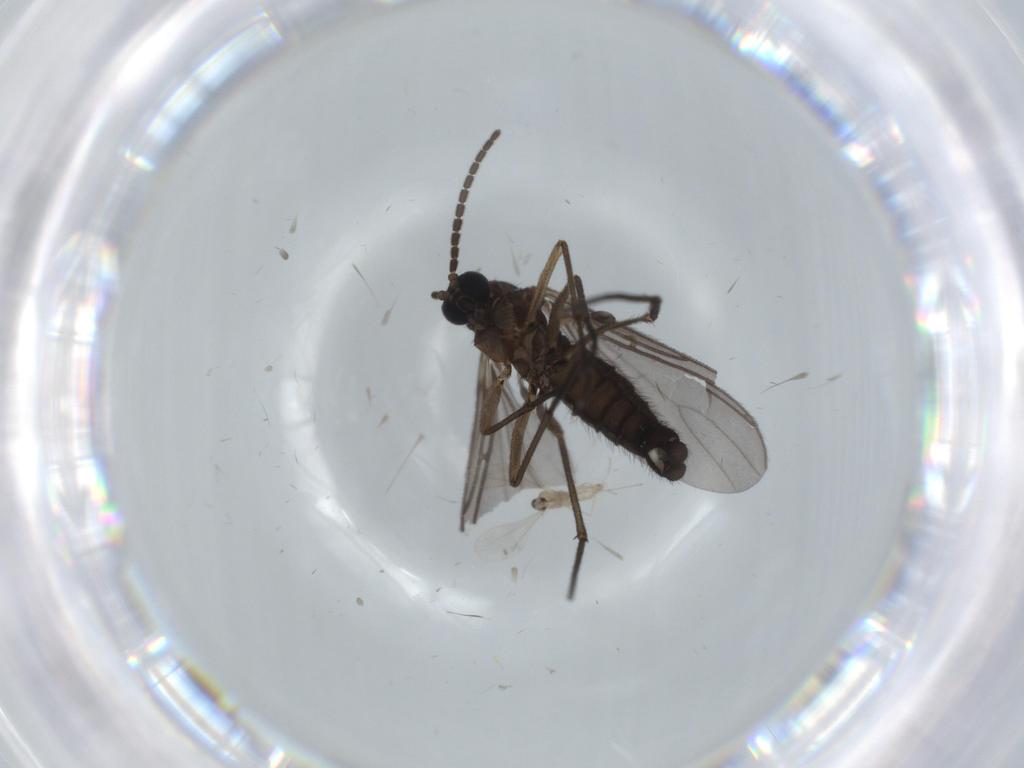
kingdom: Animalia
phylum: Arthropoda
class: Insecta
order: Diptera
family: Sciaridae
